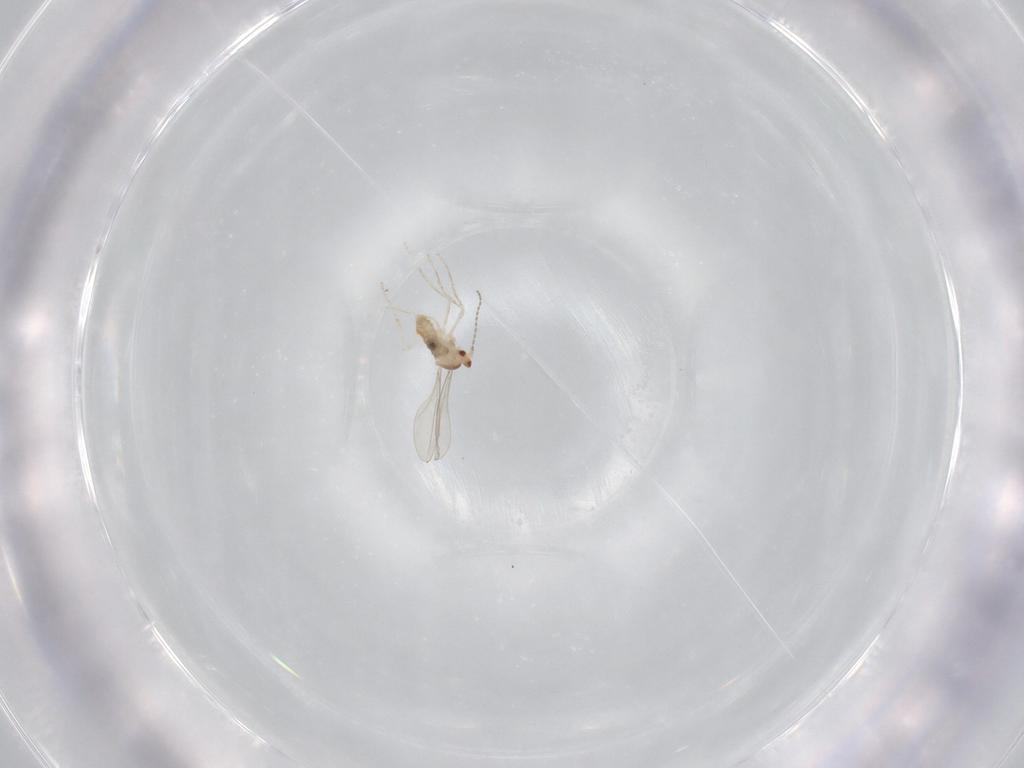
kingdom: Animalia
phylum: Arthropoda
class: Insecta
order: Diptera
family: Cecidomyiidae
